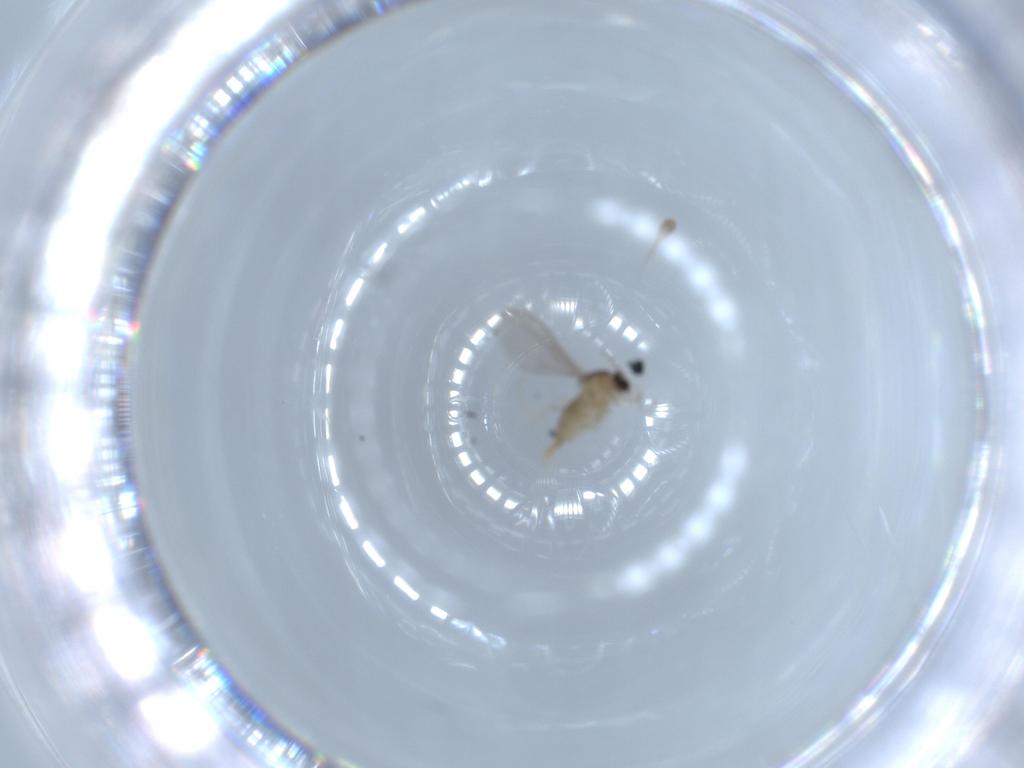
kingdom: Animalia
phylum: Arthropoda
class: Insecta
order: Diptera
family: Cecidomyiidae
